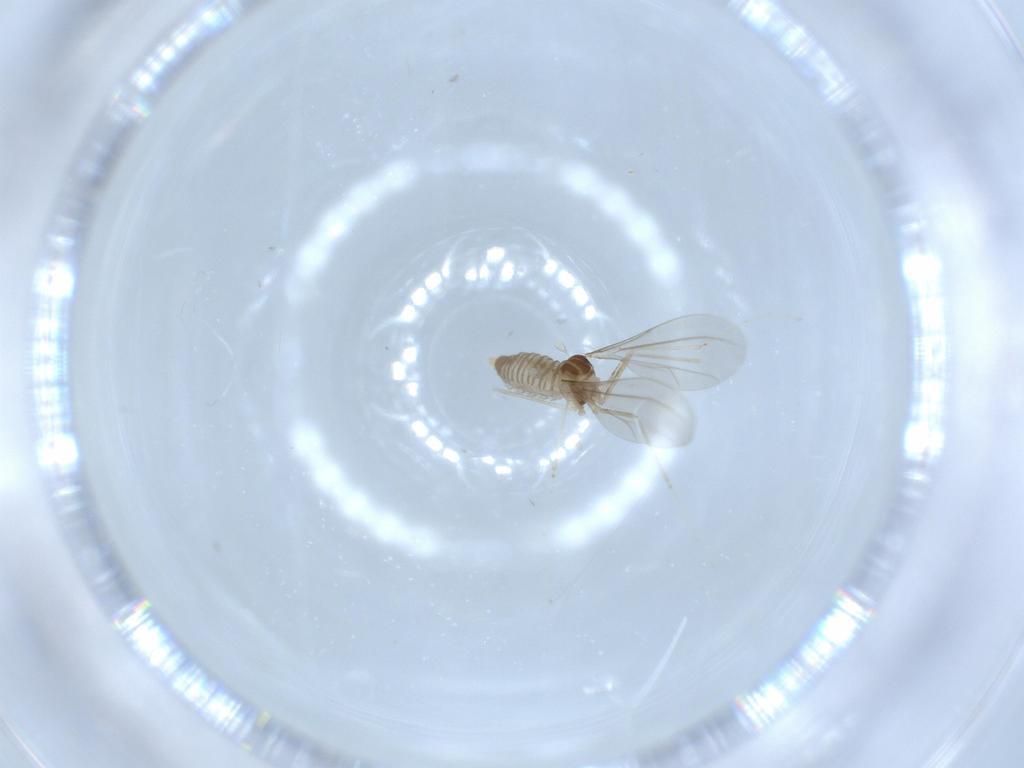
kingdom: Animalia
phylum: Arthropoda
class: Insecta
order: Diptera
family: Cecidomyiidae
